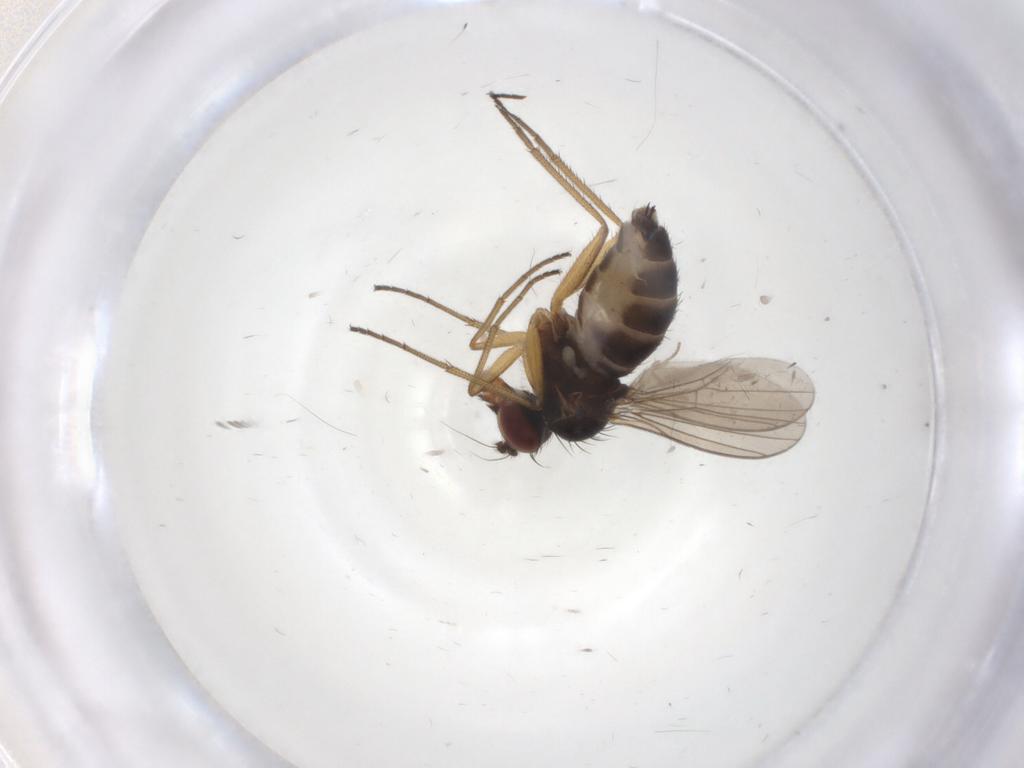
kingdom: Animalia
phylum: Arthropoda
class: Insecta
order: Diptera
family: Dolichopodidae
